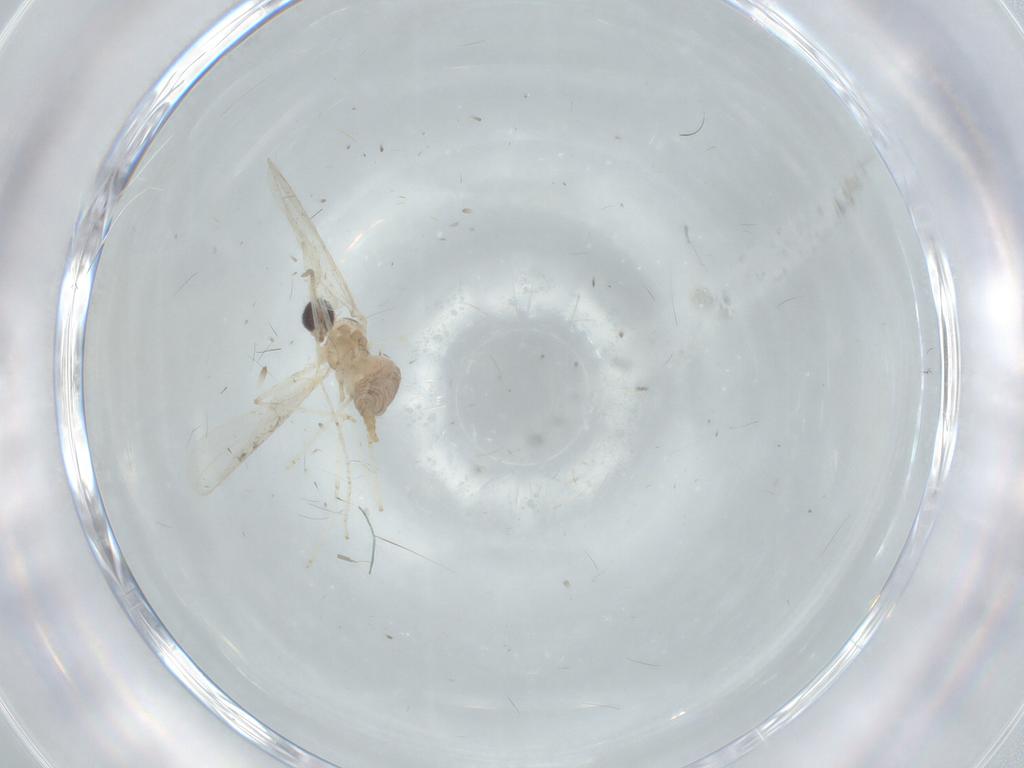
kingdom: Animalia
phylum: Arthropoda
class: Insecta
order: Diptera
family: Cecidomyiidae
